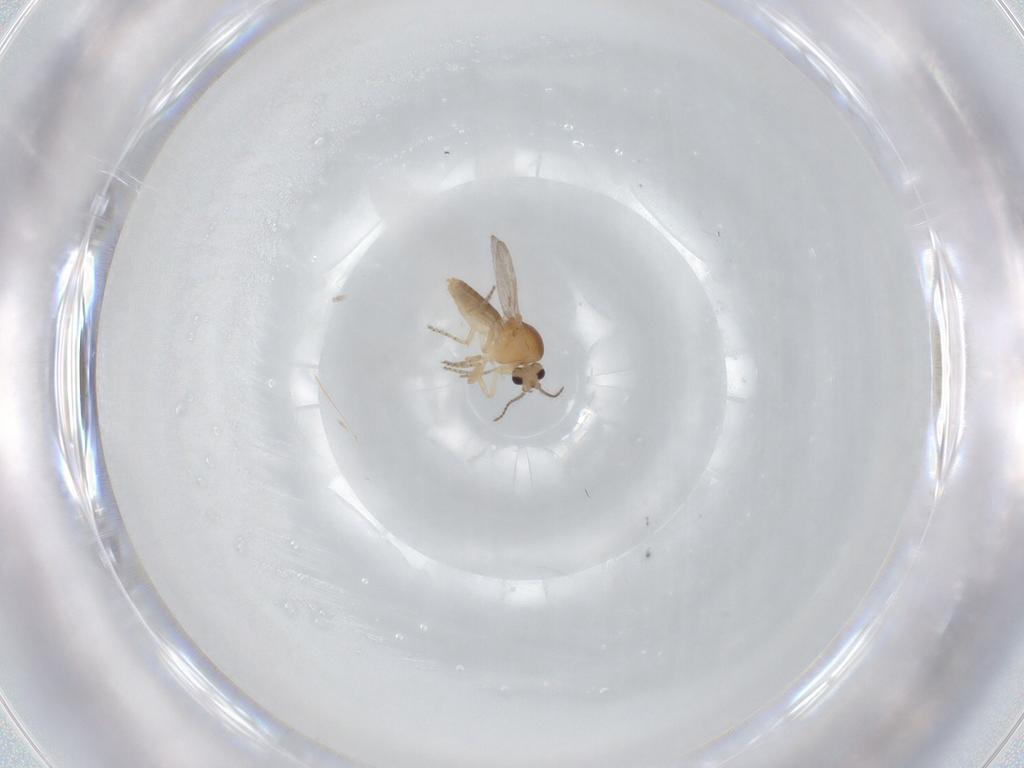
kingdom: Animalia
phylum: Arthropoda
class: Insecta
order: Diptera
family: Ceratopogonidae
